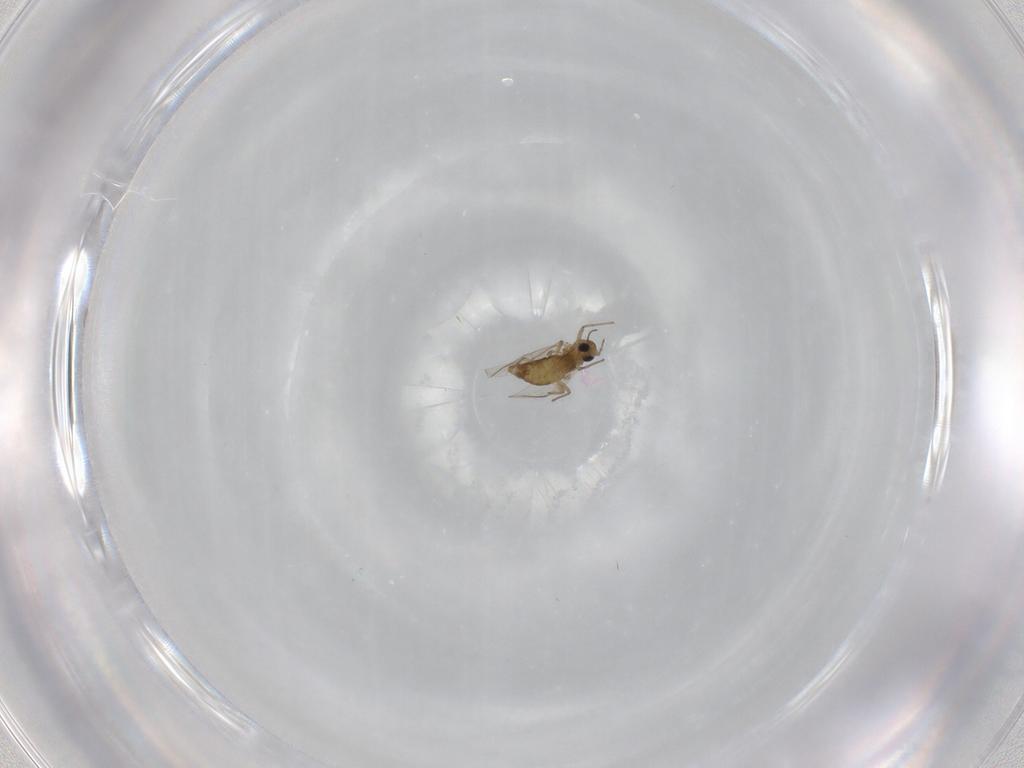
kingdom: Animalia
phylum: Arthropoda
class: Insecta
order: Diptera
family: Chironomidae
